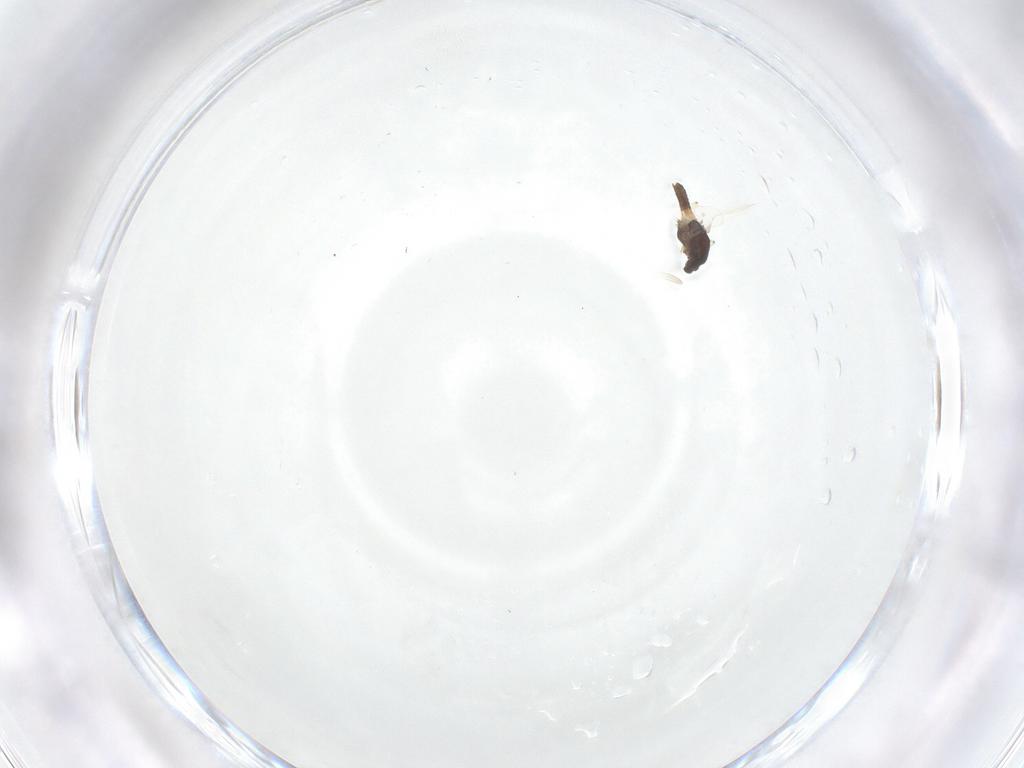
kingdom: Animalia
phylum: Arthropoda
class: Insecta
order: Diptera
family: Chironomidae
